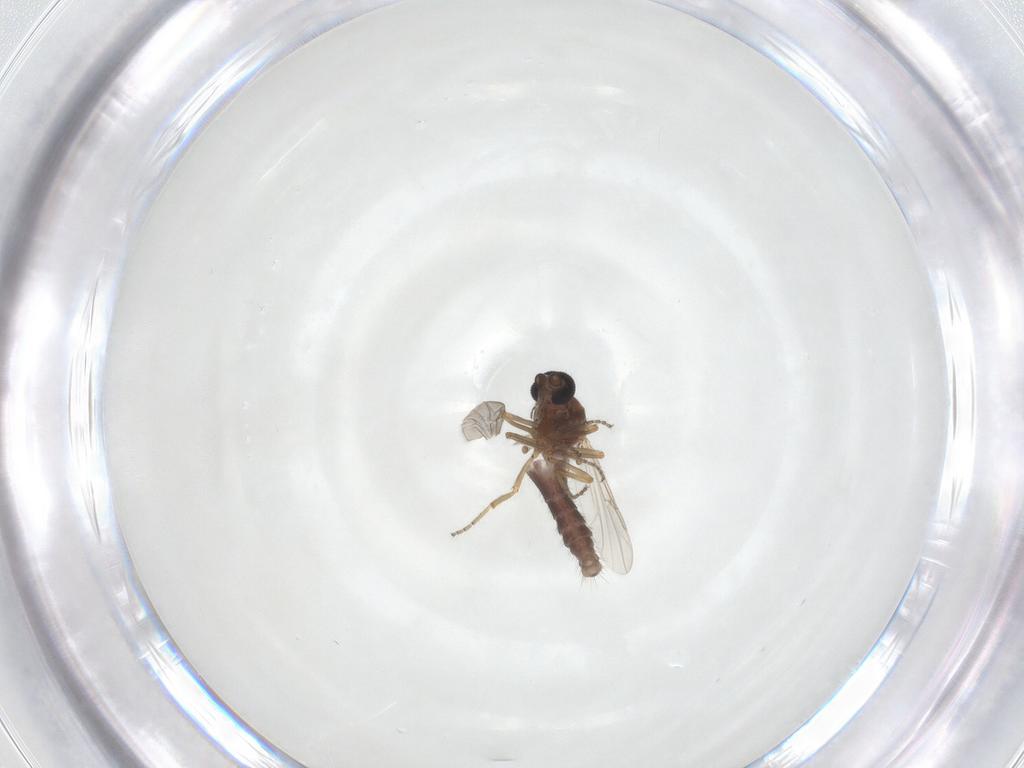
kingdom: Animalia
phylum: Arthropoda
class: Insecta
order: Diptera
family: Ceratopogonidae
